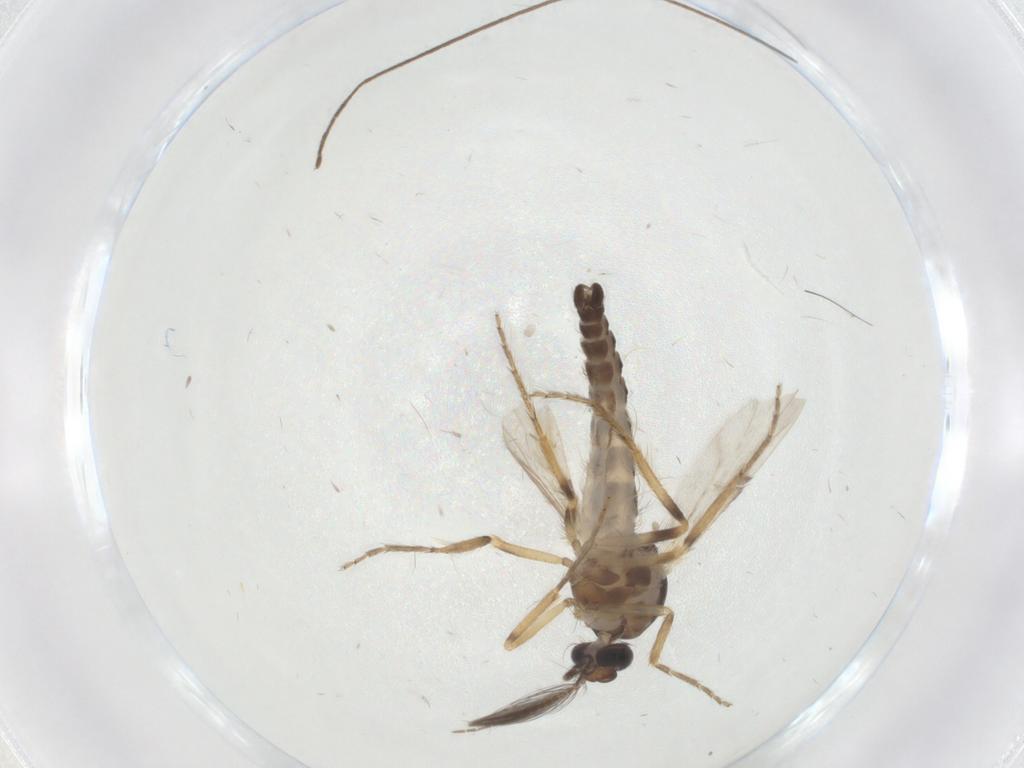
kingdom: Animalia
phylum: Arthropoda
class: Insecta
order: Diptera
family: Ceratopogonidae
